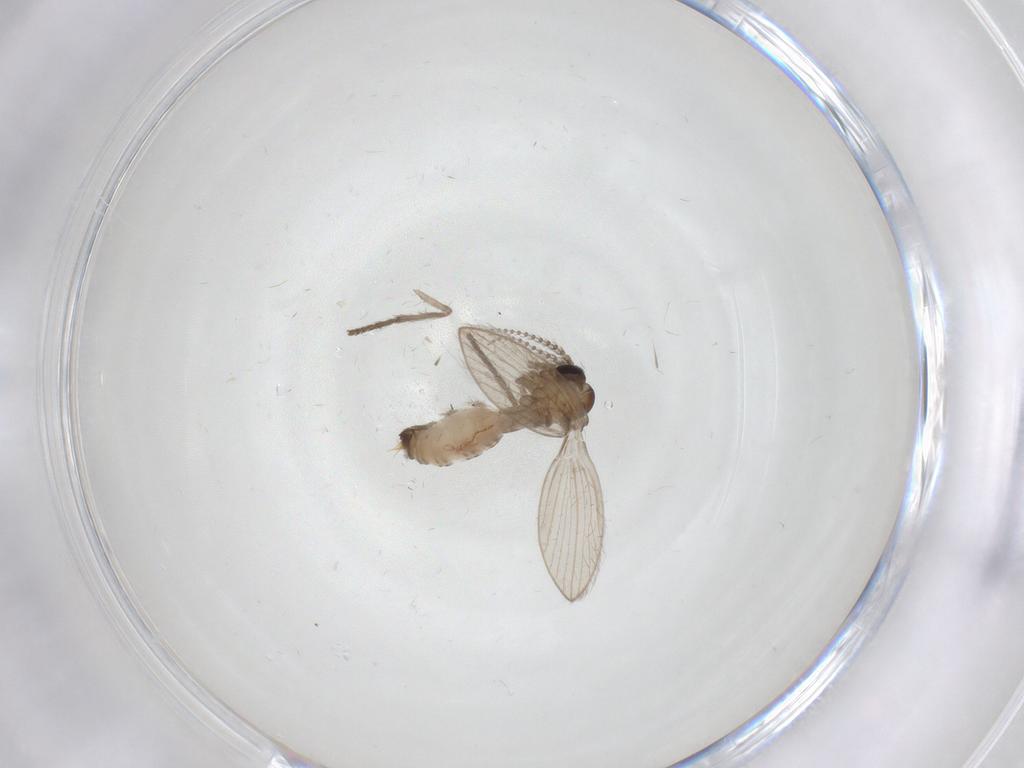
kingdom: Animalia
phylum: Arthropoda
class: Insecta
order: Diptera
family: Psychodidae
